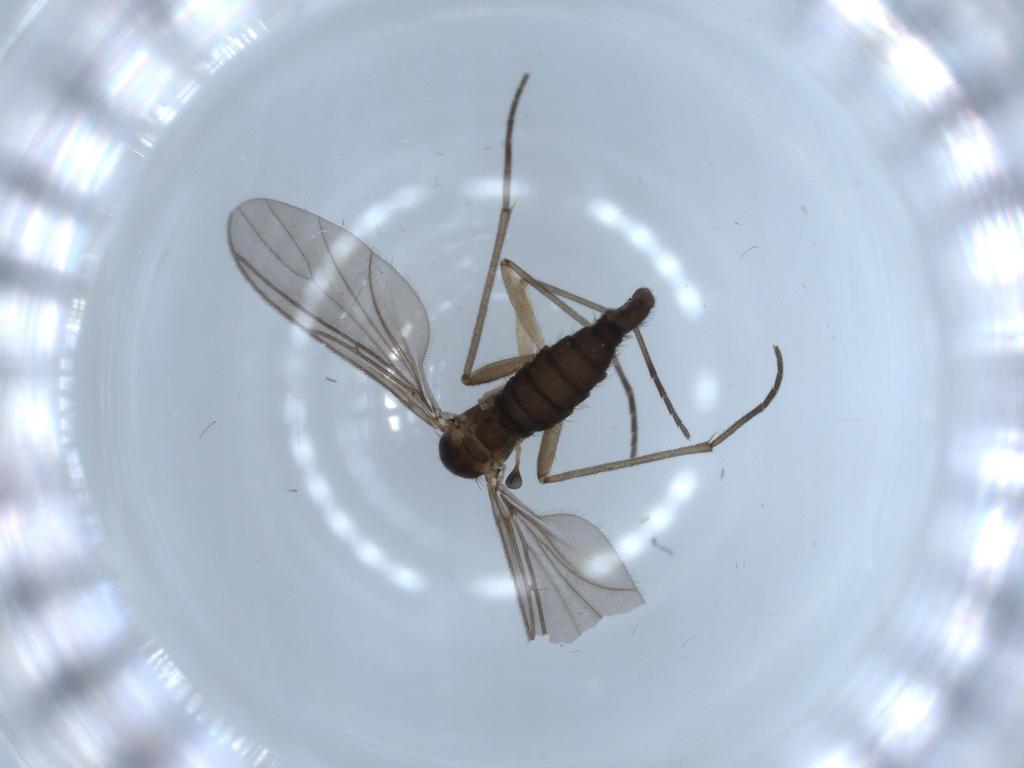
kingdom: Animalia
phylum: Arthropoda
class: Insecta
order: Diptera
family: Sciaridae
